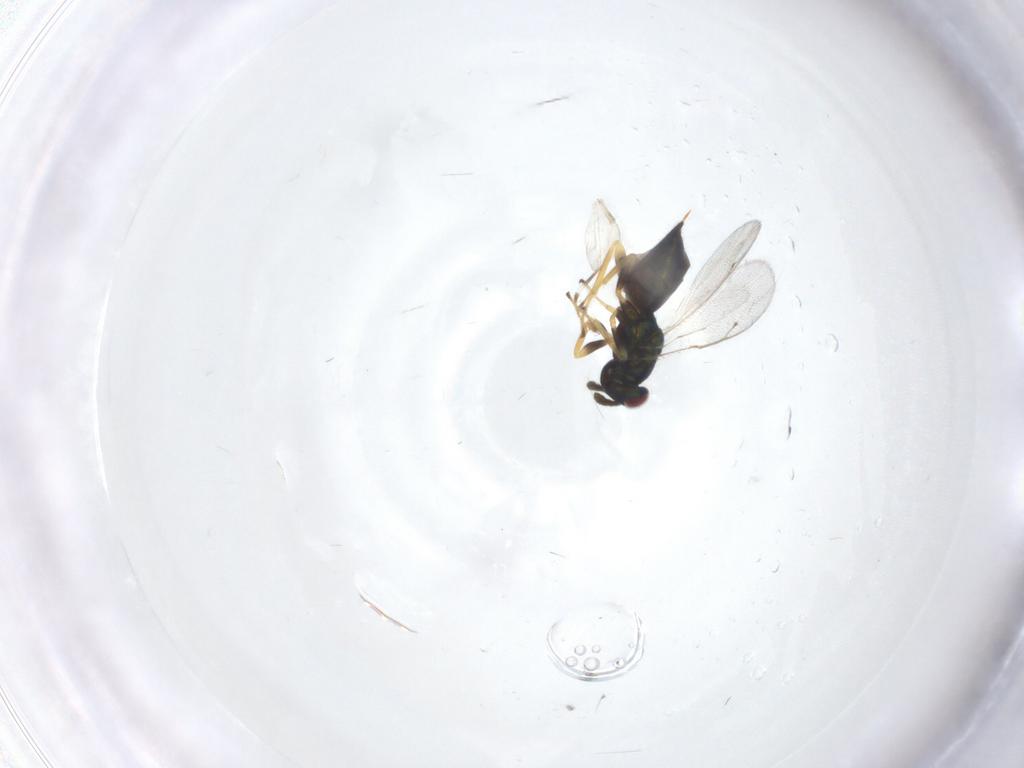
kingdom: Animalia
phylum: Arthropoda
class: Insecta
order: Hymenoptera
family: Pteromalidae
